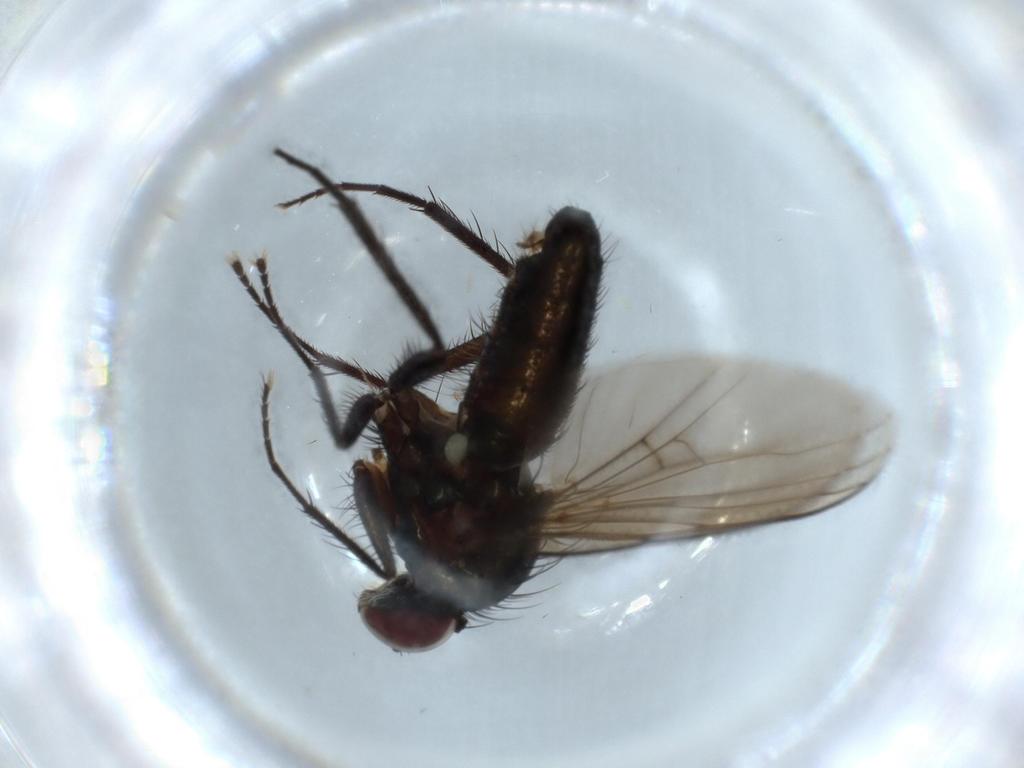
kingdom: Animalia
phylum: Arthropoda
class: Insecta
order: Diptera
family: Dolichopodidae
